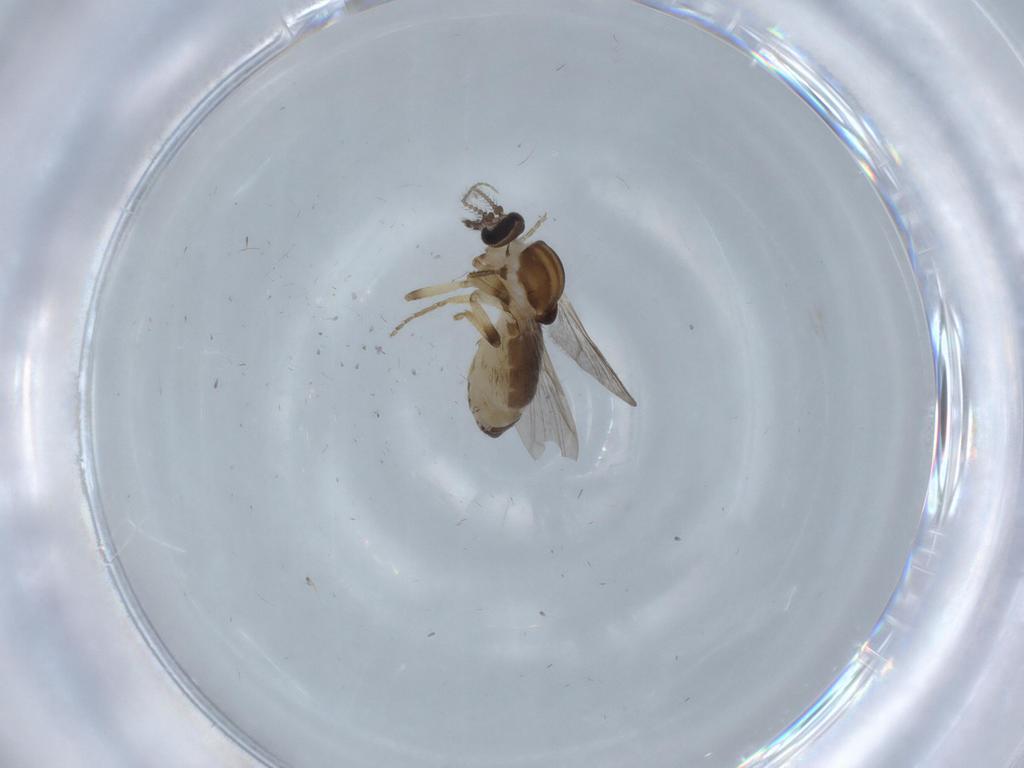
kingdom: Animalia
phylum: Arthropoda
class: Insecta
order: Diptera
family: Ceratopogonidae
